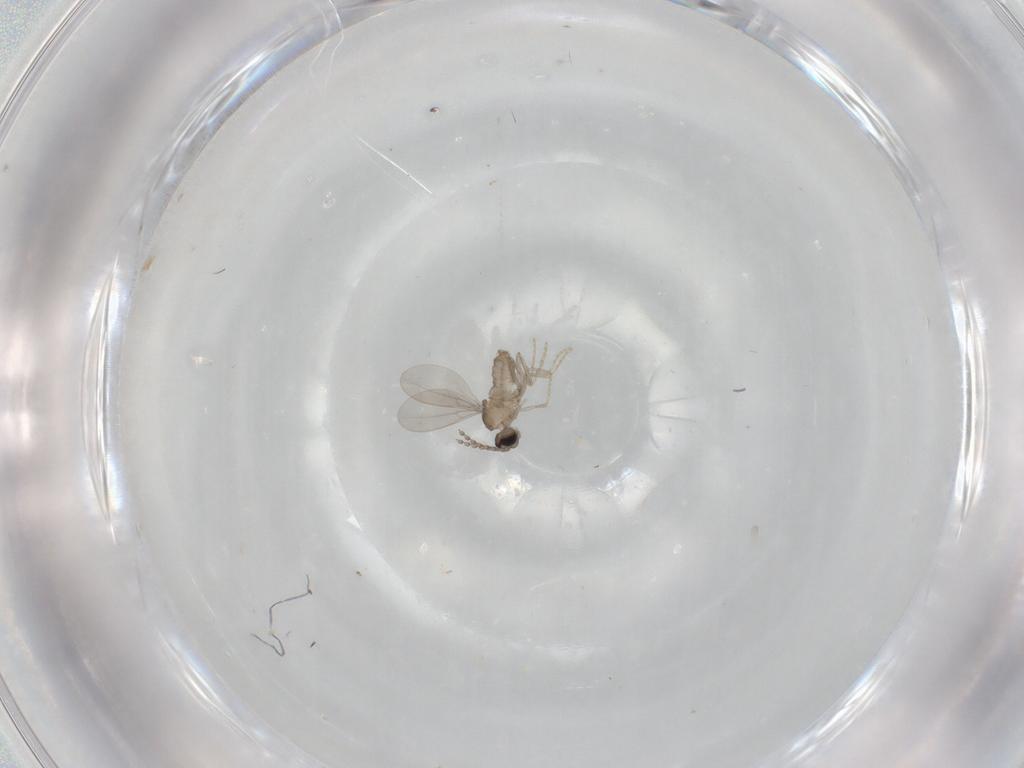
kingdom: Animalia
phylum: Arthropoda
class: Insecta
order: Diptera
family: Cecidomyiidae
